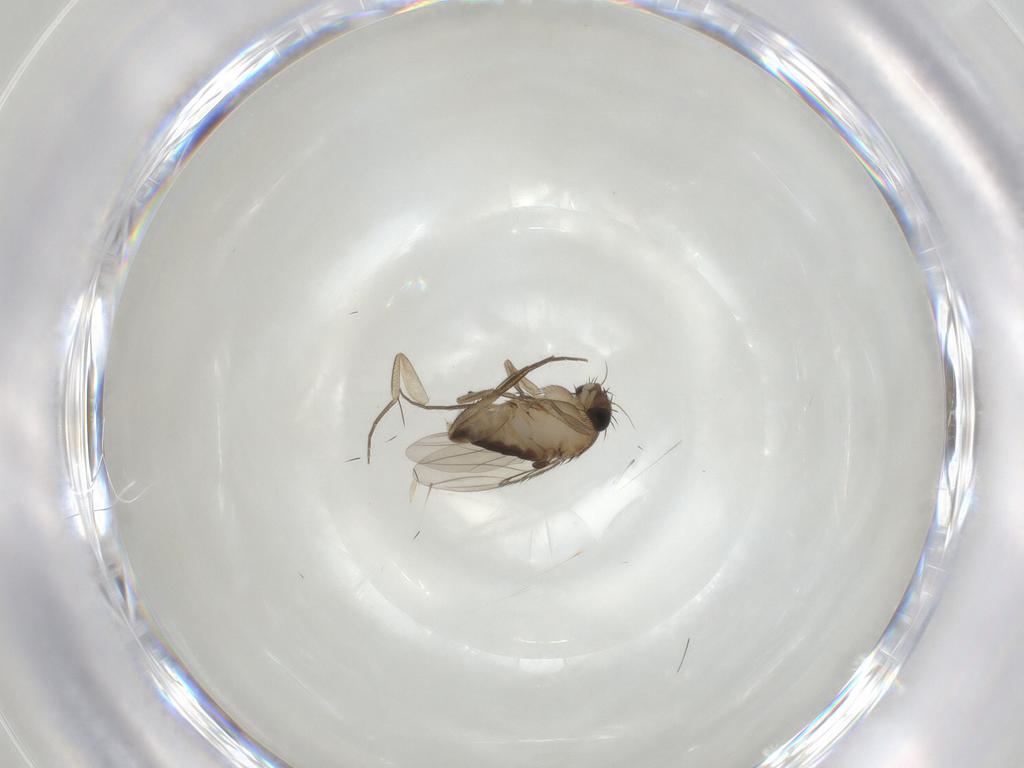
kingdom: Animalia
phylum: Arthropoda
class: Insecta
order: Diptera
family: Phoridae
